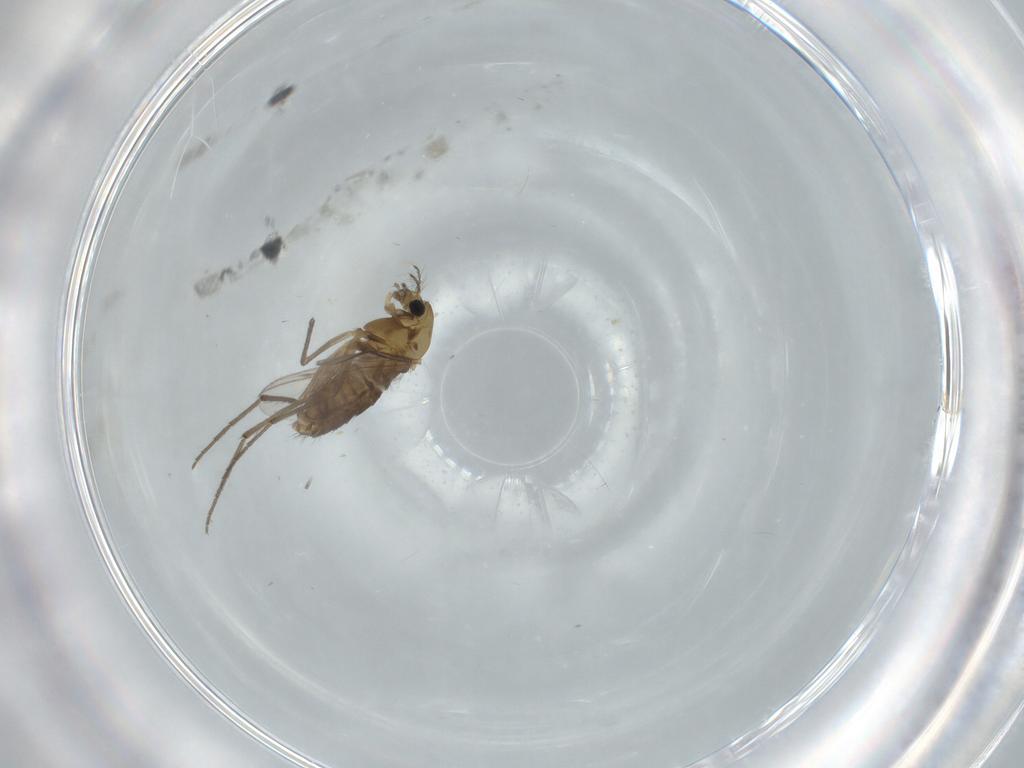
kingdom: Animalia
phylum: Arthropoda
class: Insecta
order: Diptera
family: Chironomidae
